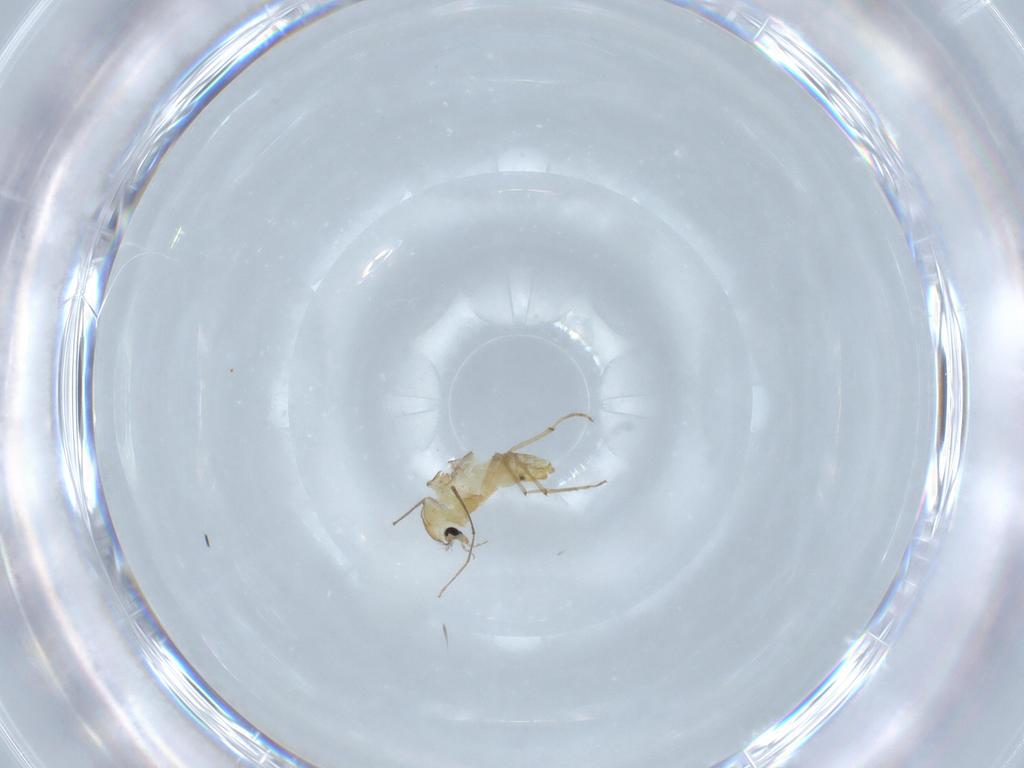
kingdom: Animalia
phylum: Arthropoda
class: Insecta
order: Diptera
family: Chironomidae
